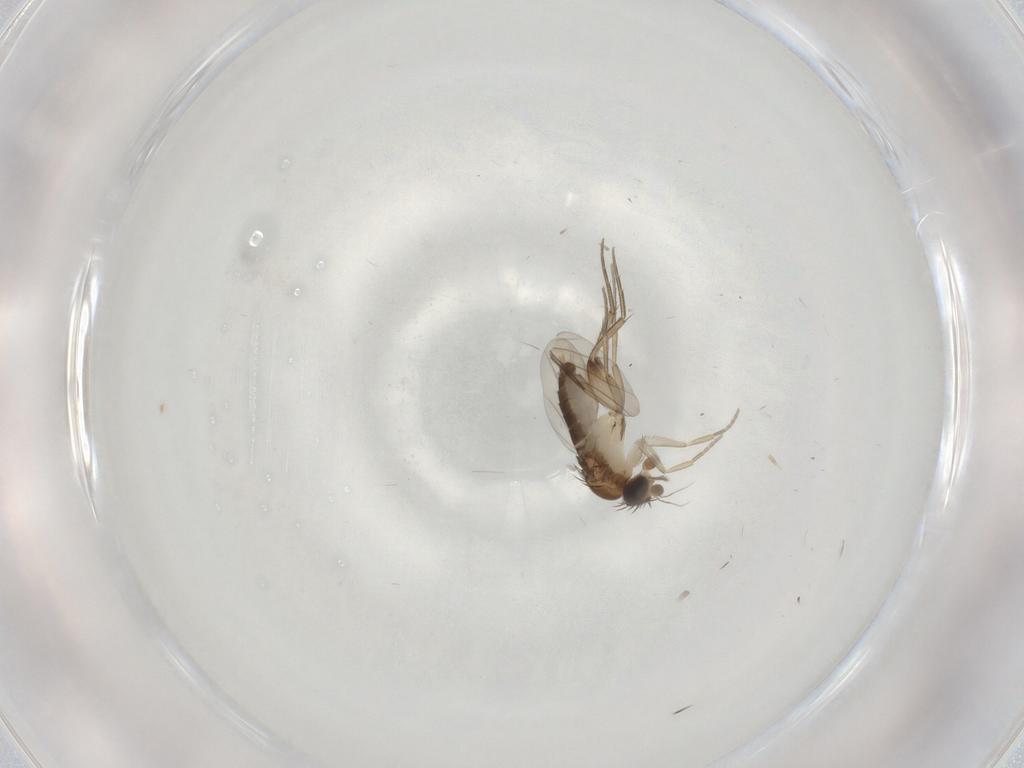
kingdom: Animalia
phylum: Arthropoda
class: Insecta
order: Diptera
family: Phoridae
